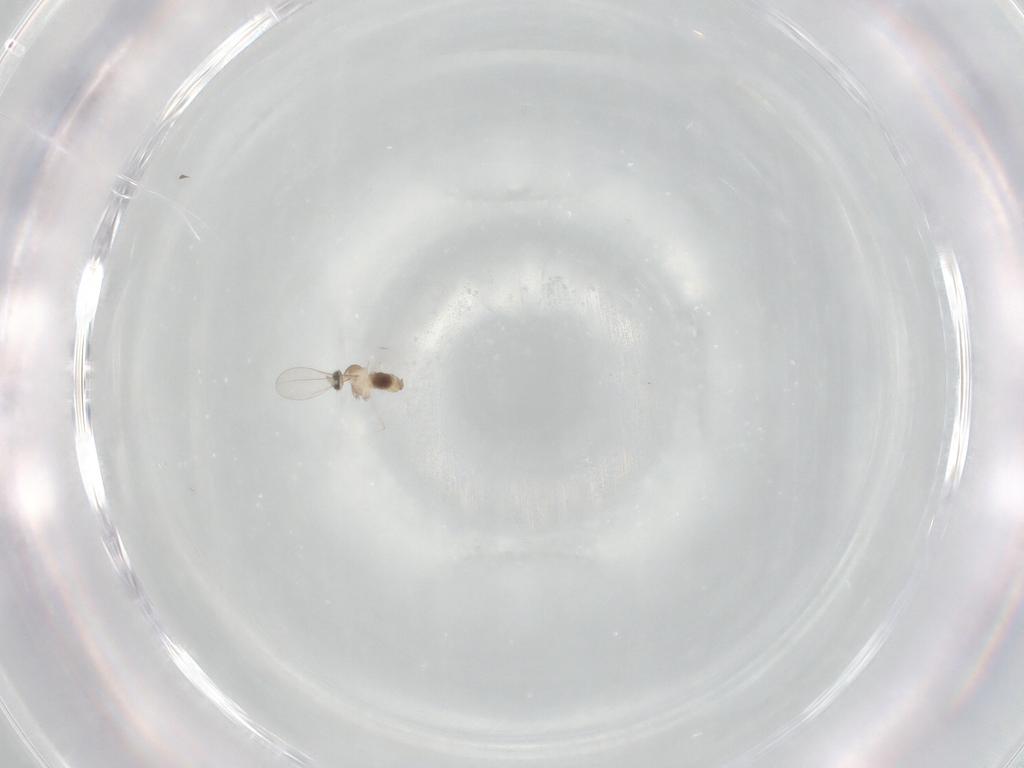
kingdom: Animalia
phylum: Arthropoda
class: Insecta
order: Diptera
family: Cecidomyiidae
